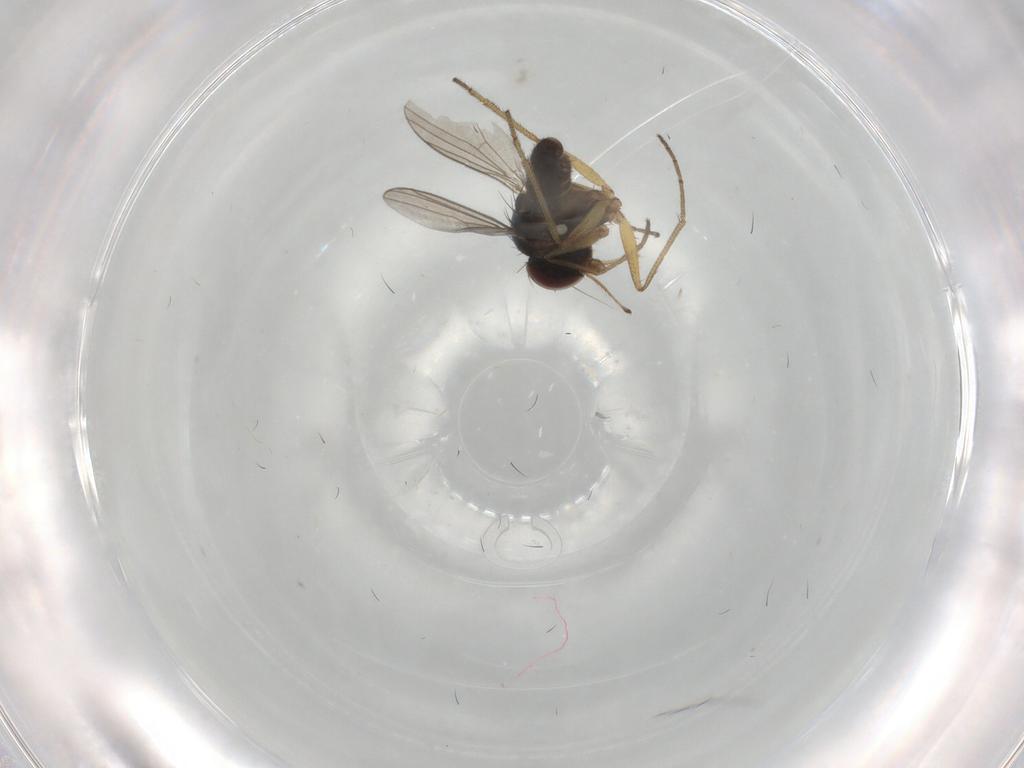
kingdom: Animalia
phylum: Arthropoda
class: Insecta
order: Diptera
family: Dolichopodidae
